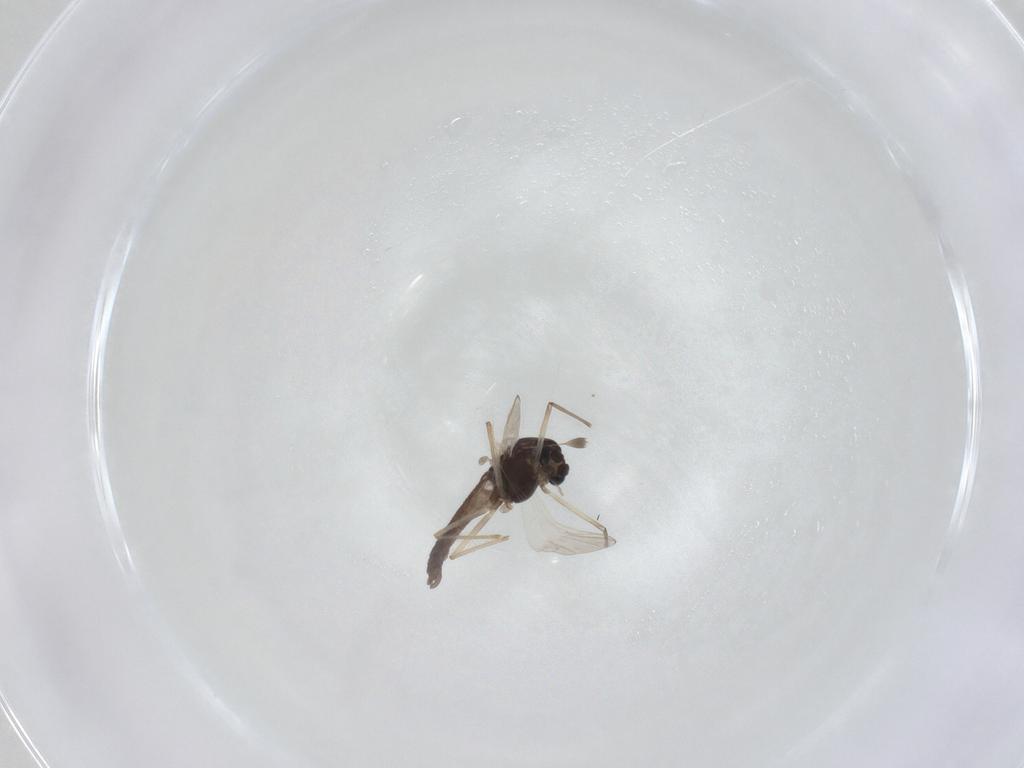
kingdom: Animalia
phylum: Arthropoda
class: Insecta
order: Diptera
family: Chironomidae
